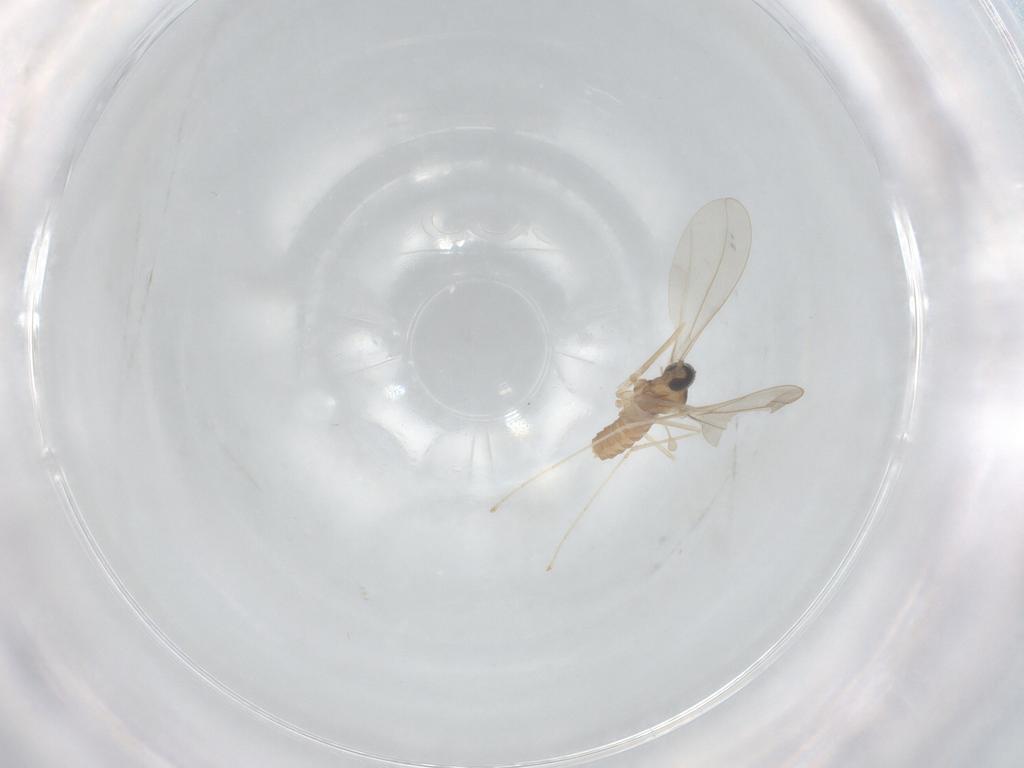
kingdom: Animalia
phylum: Arthropoda
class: Insecta
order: Diptera
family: Cecidomyiidae
